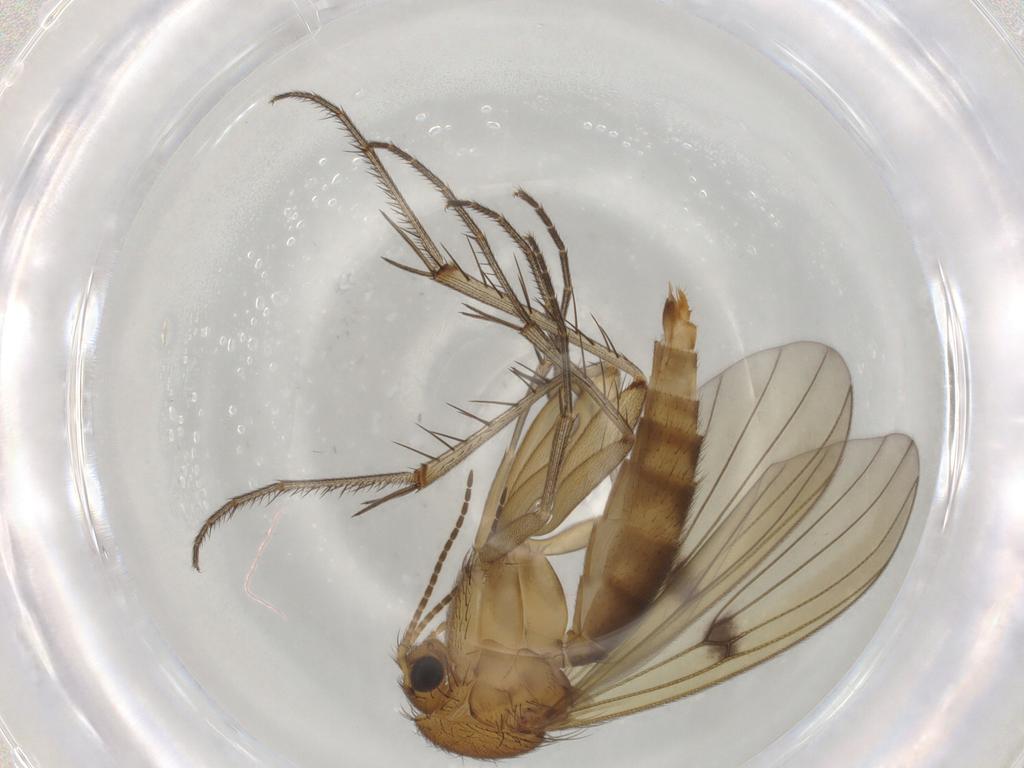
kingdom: Animalia
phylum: Arthropoda
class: Insecta
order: Diptera
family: Mycetophilidae
